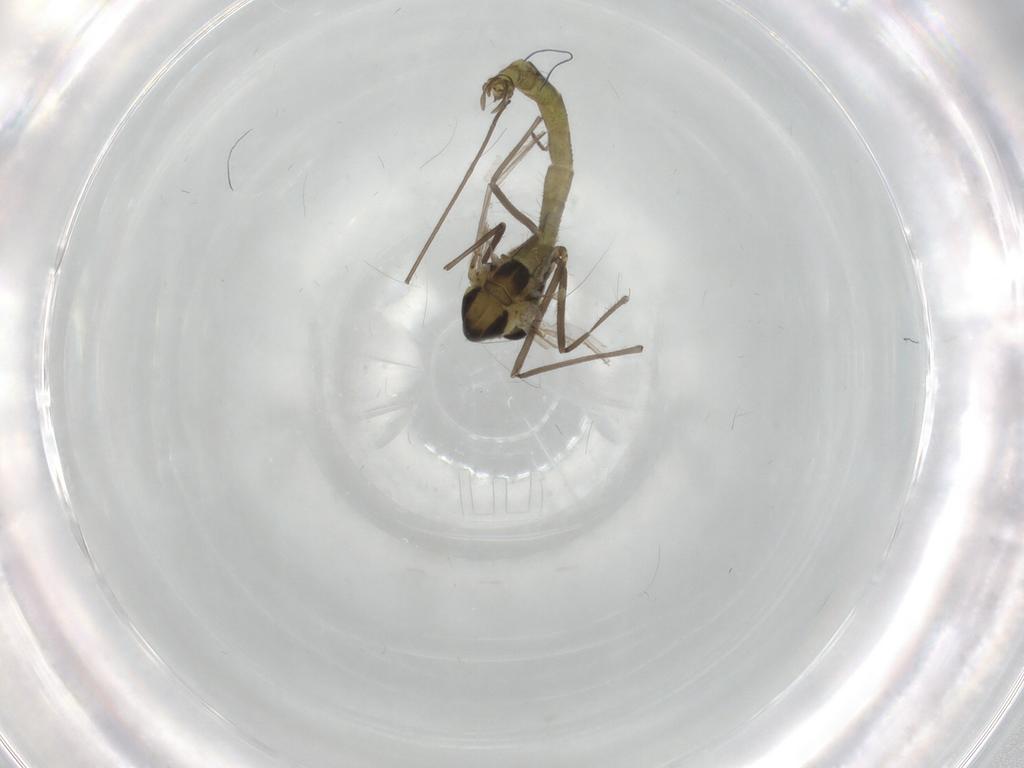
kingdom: Animalia
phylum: Arthropoda
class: Insecta
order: Diptera
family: Chironomidae
